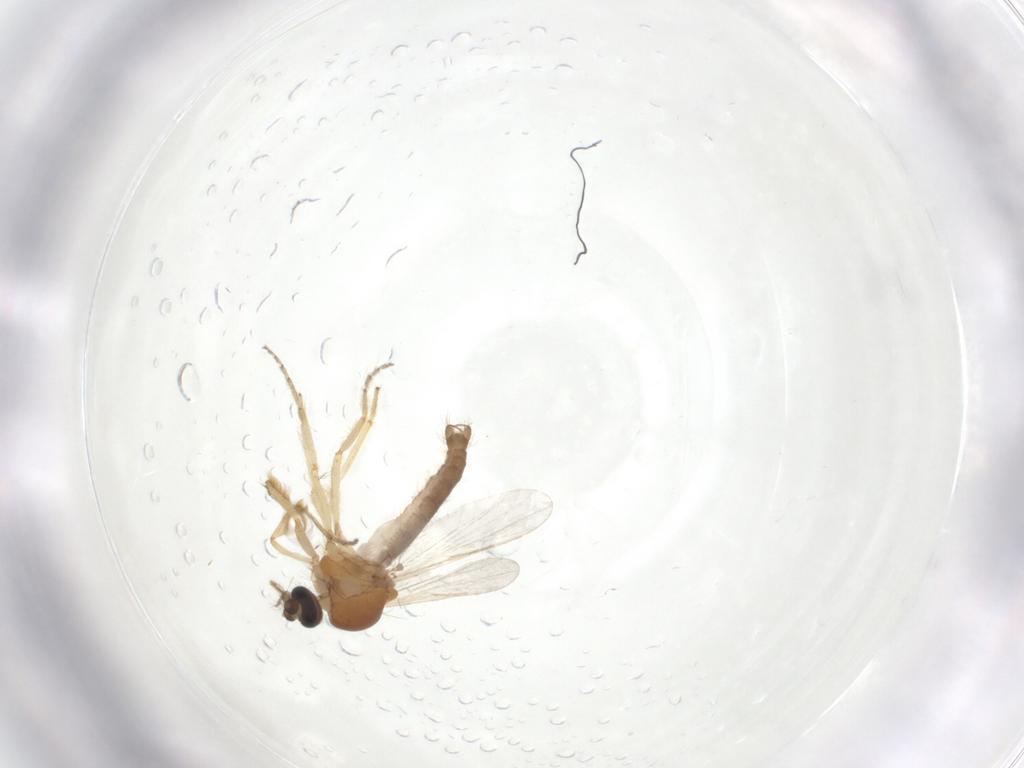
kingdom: Animalia
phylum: Arthropoda
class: Insecta
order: Diptera
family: Ceratopogonidae
